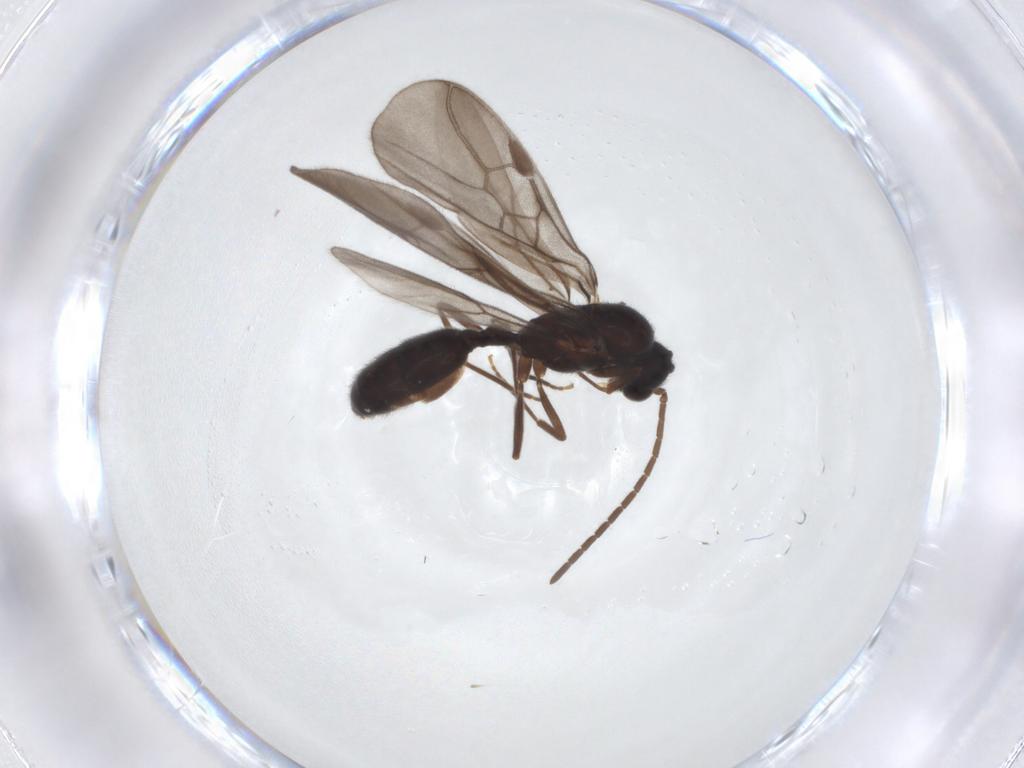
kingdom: Animalia
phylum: Arthropoda
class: Insecta
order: Hymenoptera
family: Formicidae
